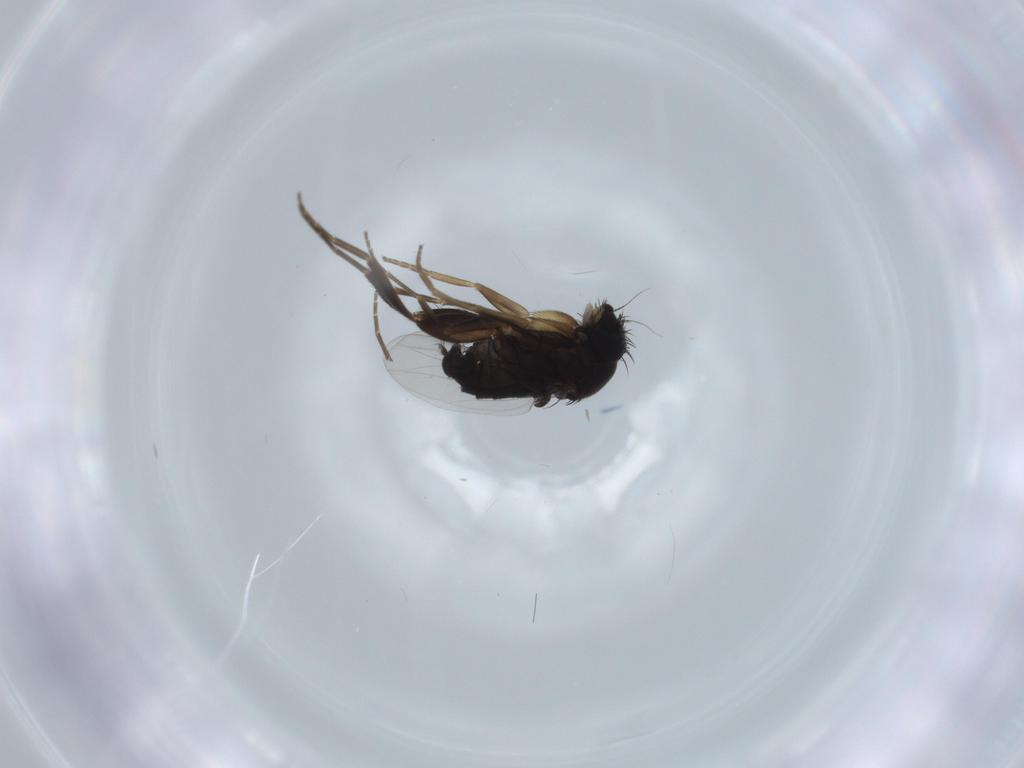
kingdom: Animalia
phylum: Arthropoda
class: Insecta
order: Diptera
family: Phoridae
